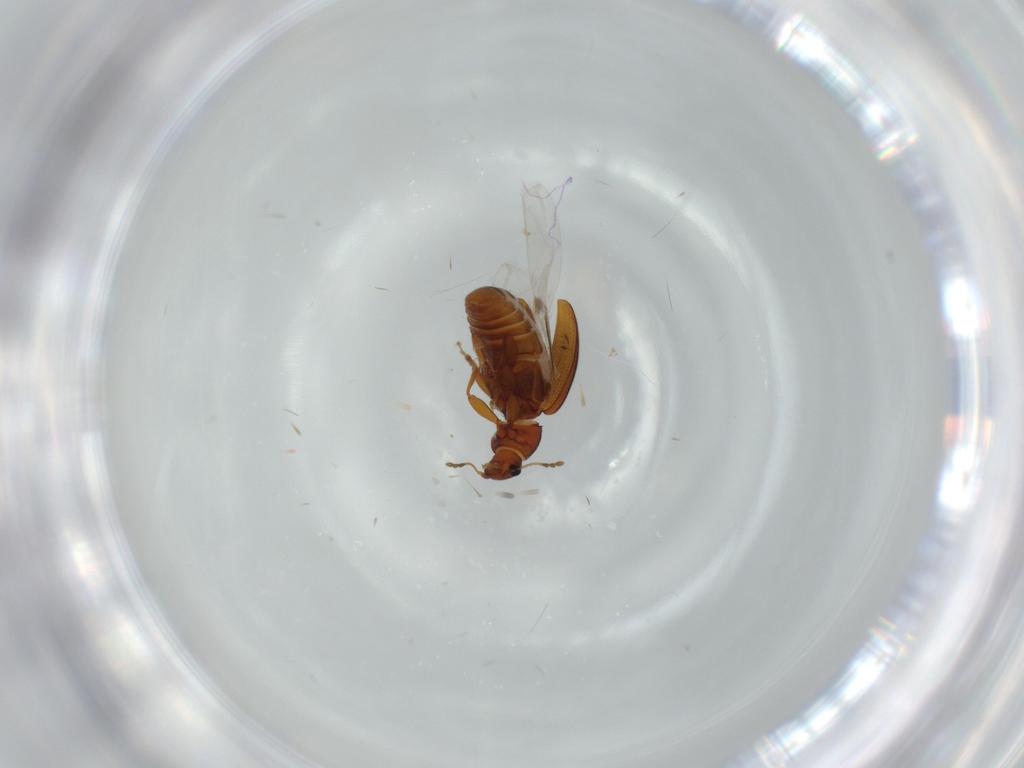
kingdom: Animalia
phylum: Arthropoda
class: Insecta
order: Coleoptera
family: Latridiidae
